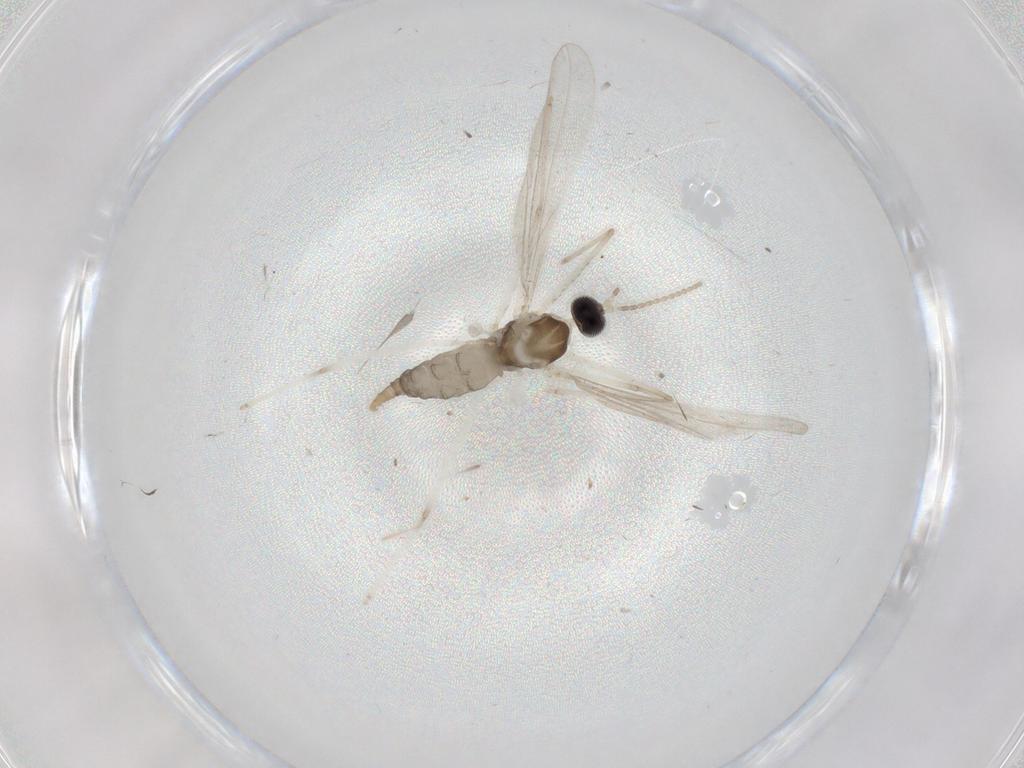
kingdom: Animalia
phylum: Arthropoda
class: Insecta
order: Diptera
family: Cecidomyiidae
